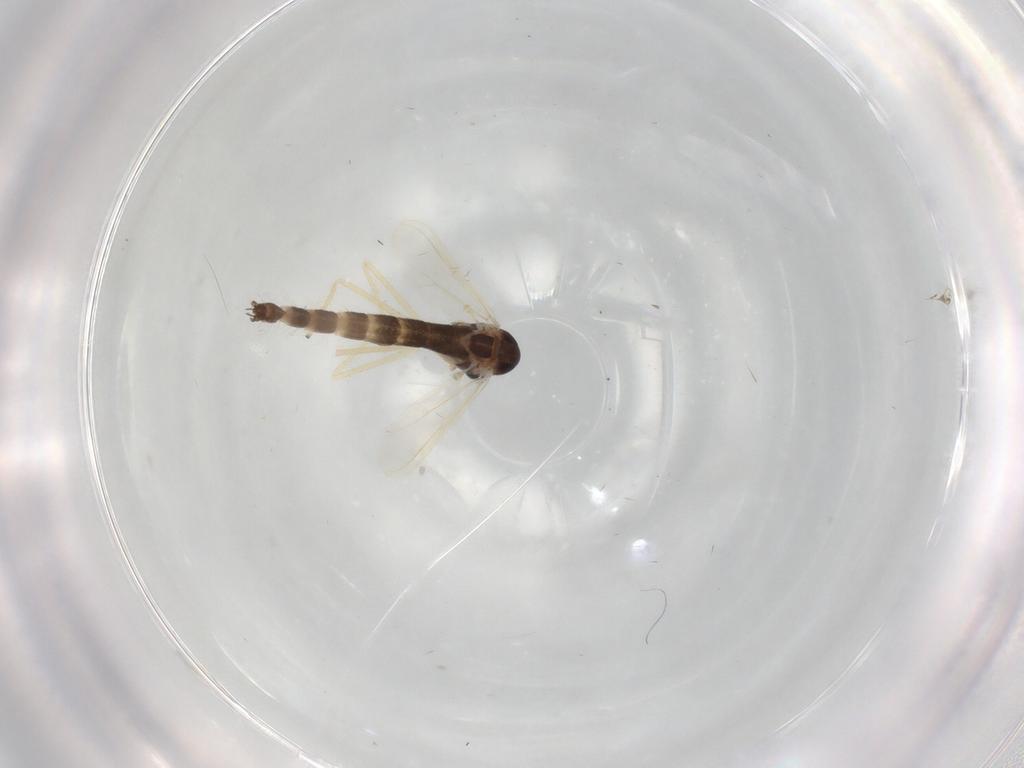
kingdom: Animalia
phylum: Arthropoda
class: Insecta
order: Diptera
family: Chironomidae
